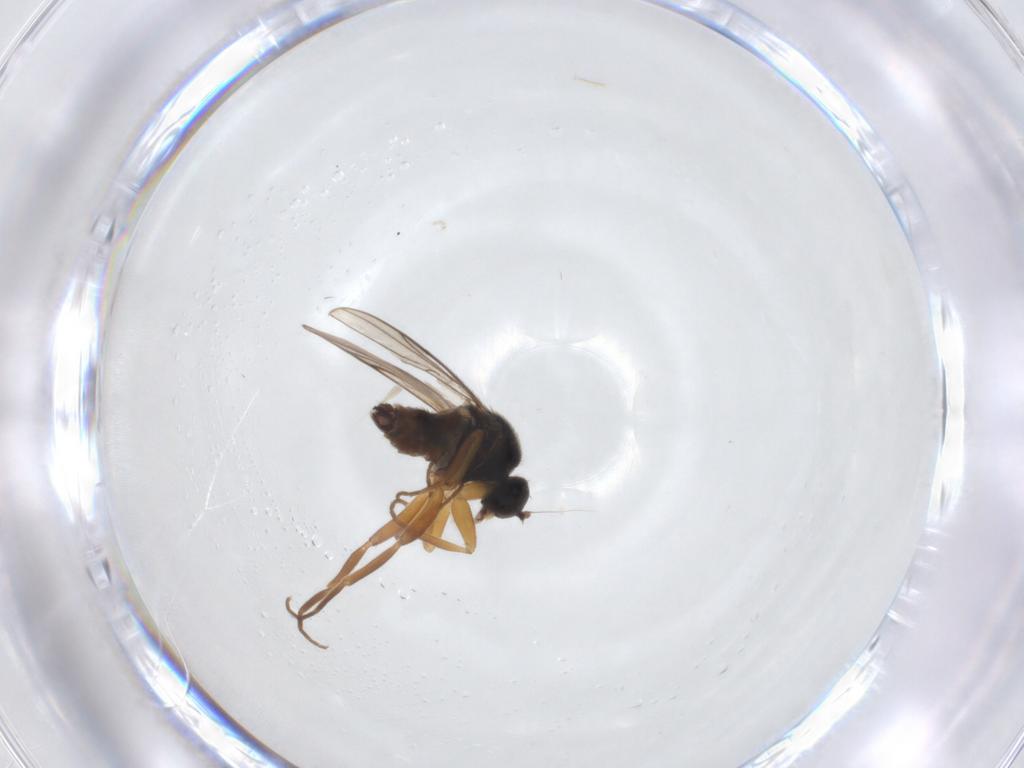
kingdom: Animalia
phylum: Arthropoda
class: Insecta
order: Diptera
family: Hybotidae
